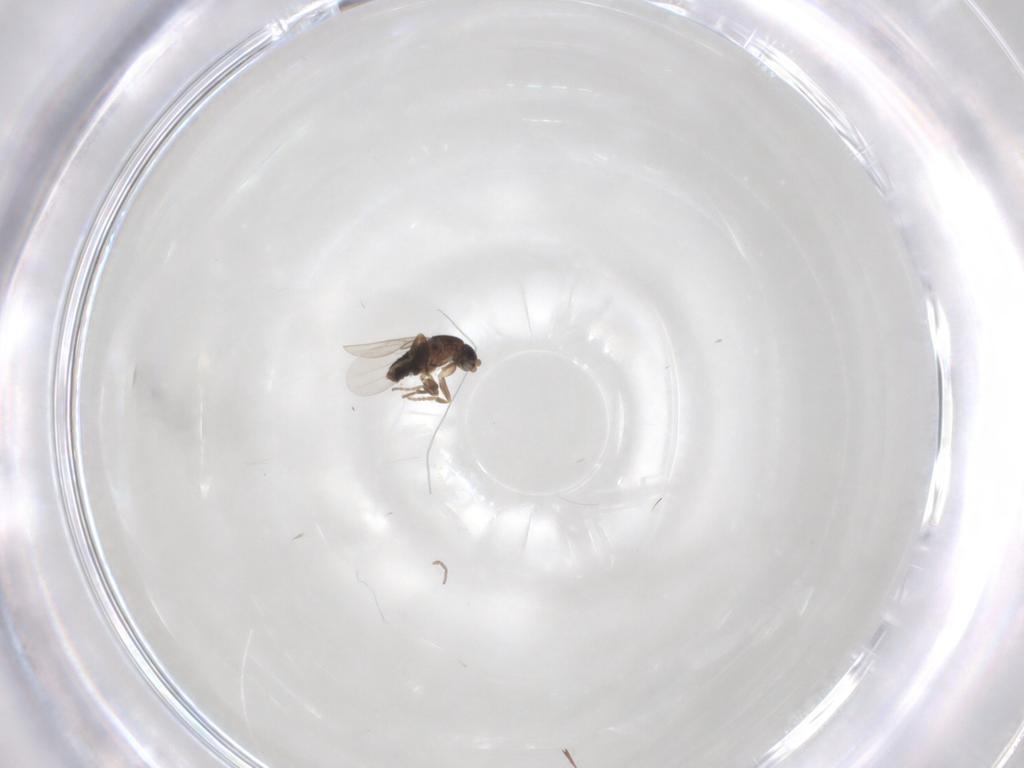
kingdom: Animalia
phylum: Arthropoda
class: Insecta
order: Diptera
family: Chironomidae
